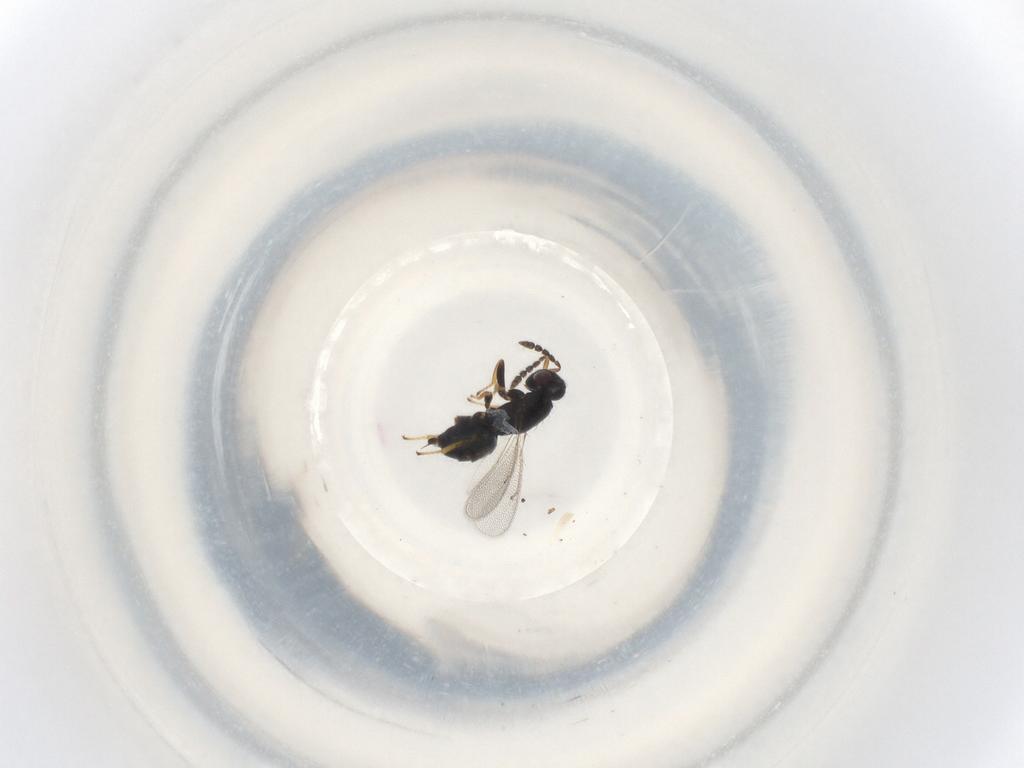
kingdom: Animalia
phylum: Arthropoda
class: Insecta
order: Hymenoptera
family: Eulophidae
